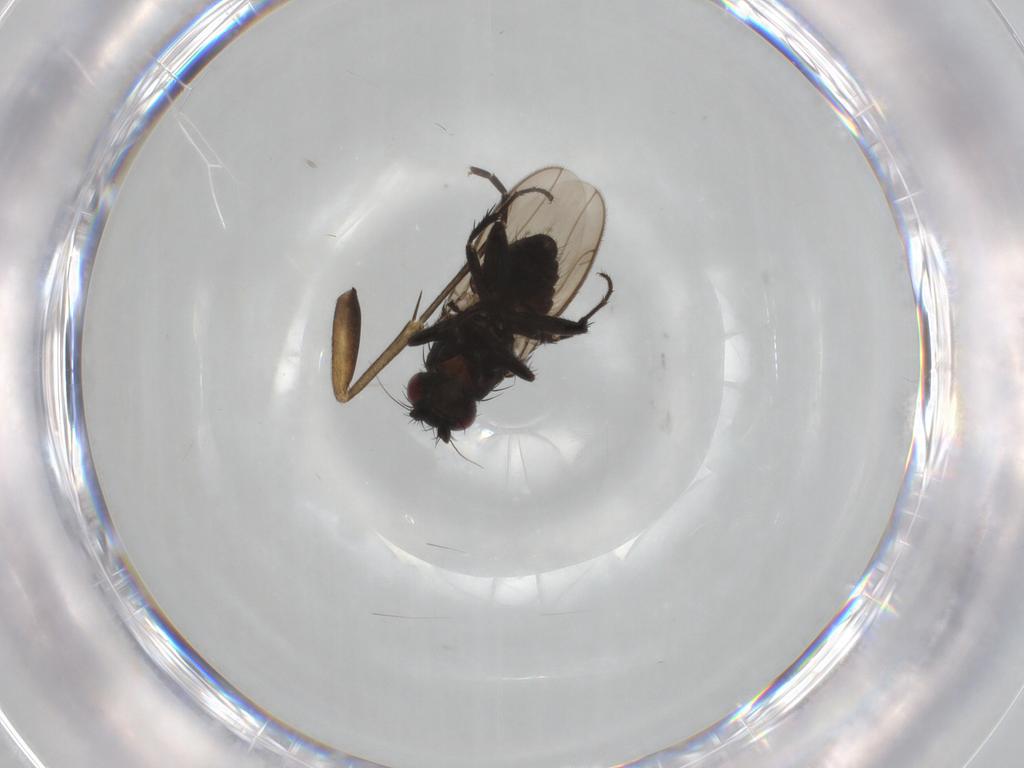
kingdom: Animalia
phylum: Arthropoda
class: Insecta
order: Diptera
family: Sphaeroceridae
